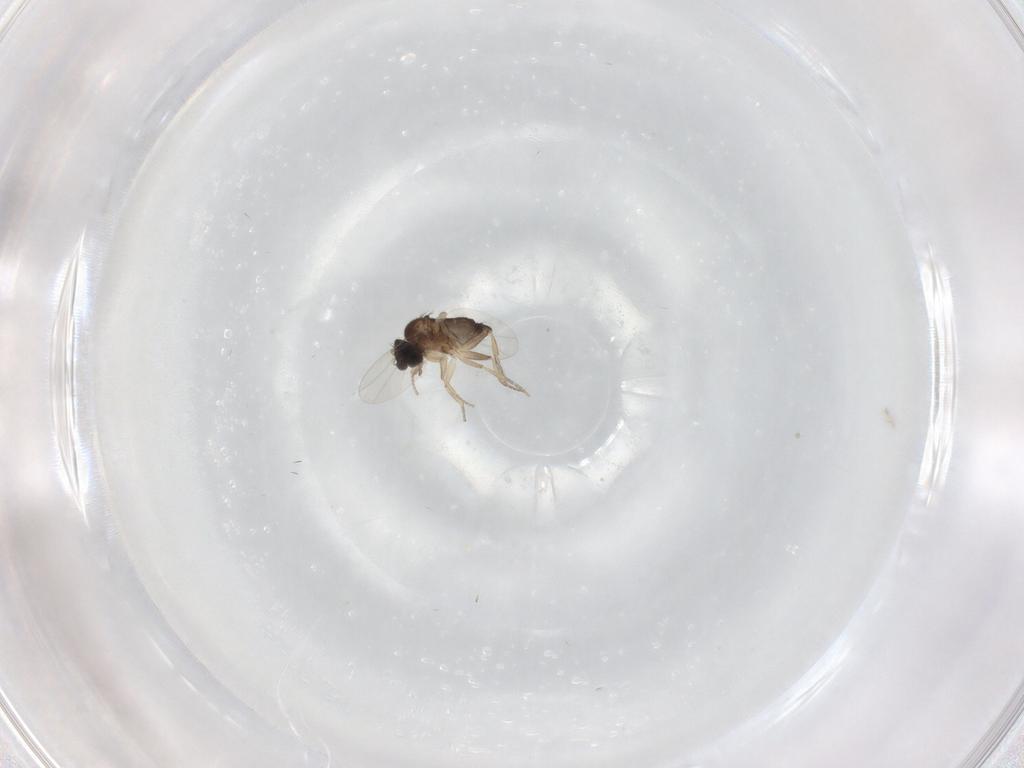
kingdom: Animalia
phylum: Arthropoda
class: Insecta
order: Diptera
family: Phoridae
